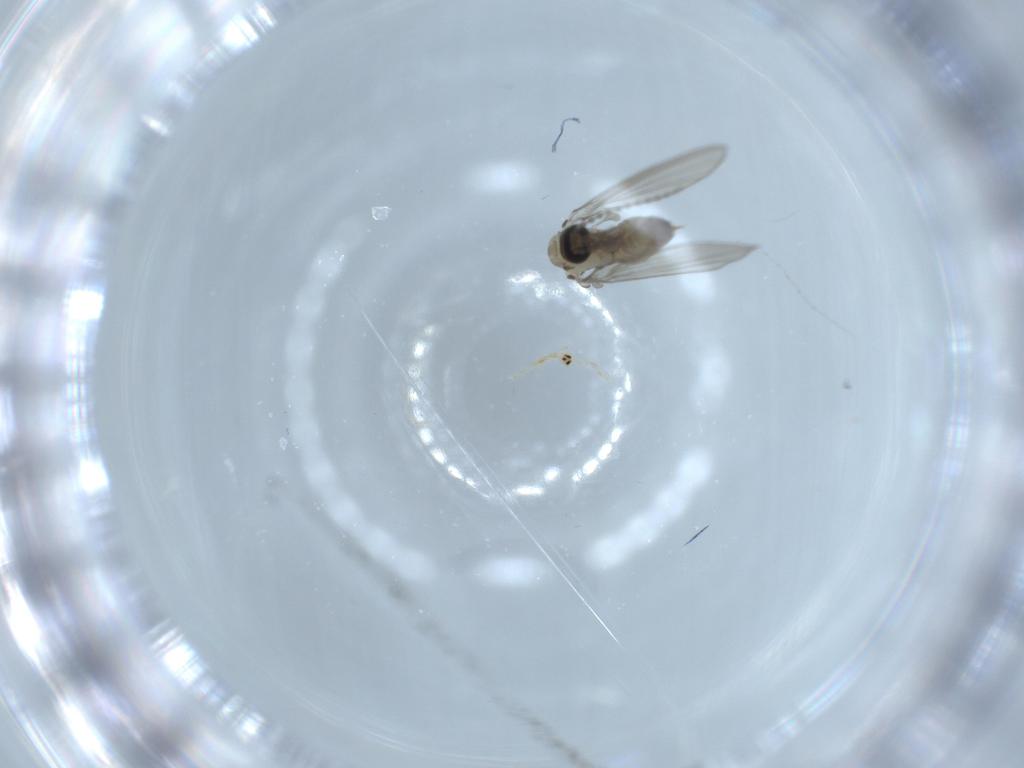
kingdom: Animalia
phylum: Arthropoda
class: Insecta
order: Diptera
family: Psychodidae
